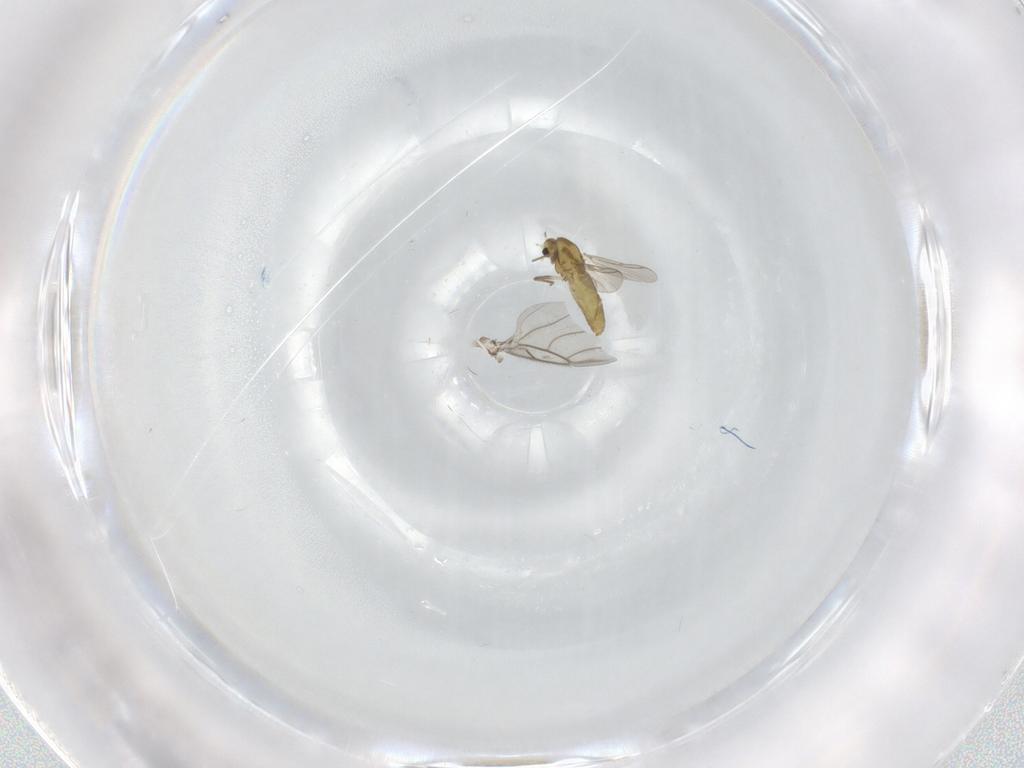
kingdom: Animalia
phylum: Arthropoda
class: Insecta
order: Diptera
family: Chironomidae
